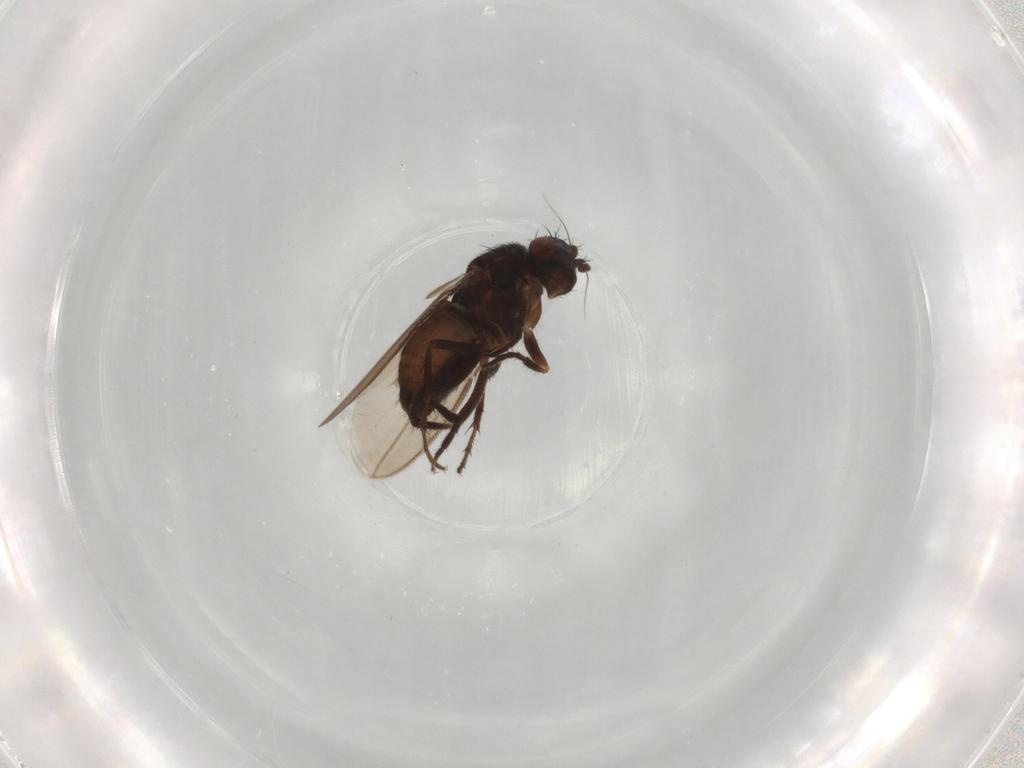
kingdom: Animalia
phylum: Arthropoda
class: Insecta
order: Diptera
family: Sphaeroceridae
